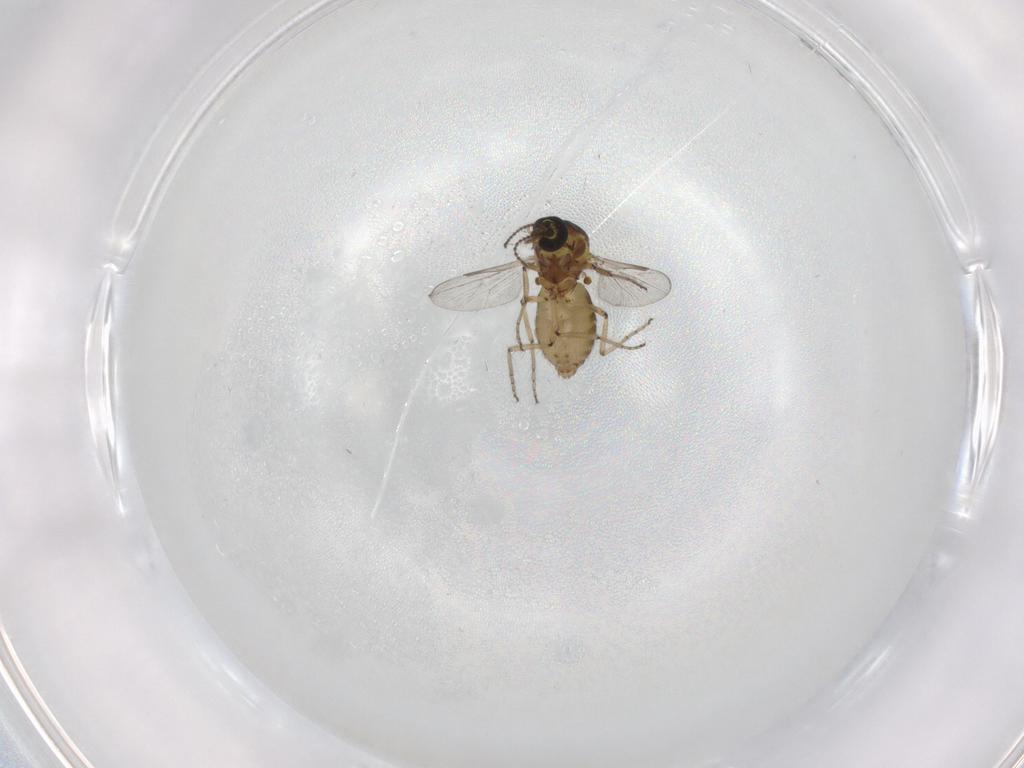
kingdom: Animalia
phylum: Arthropoda
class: Insecta
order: Diptera
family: Ceratopogonidae
